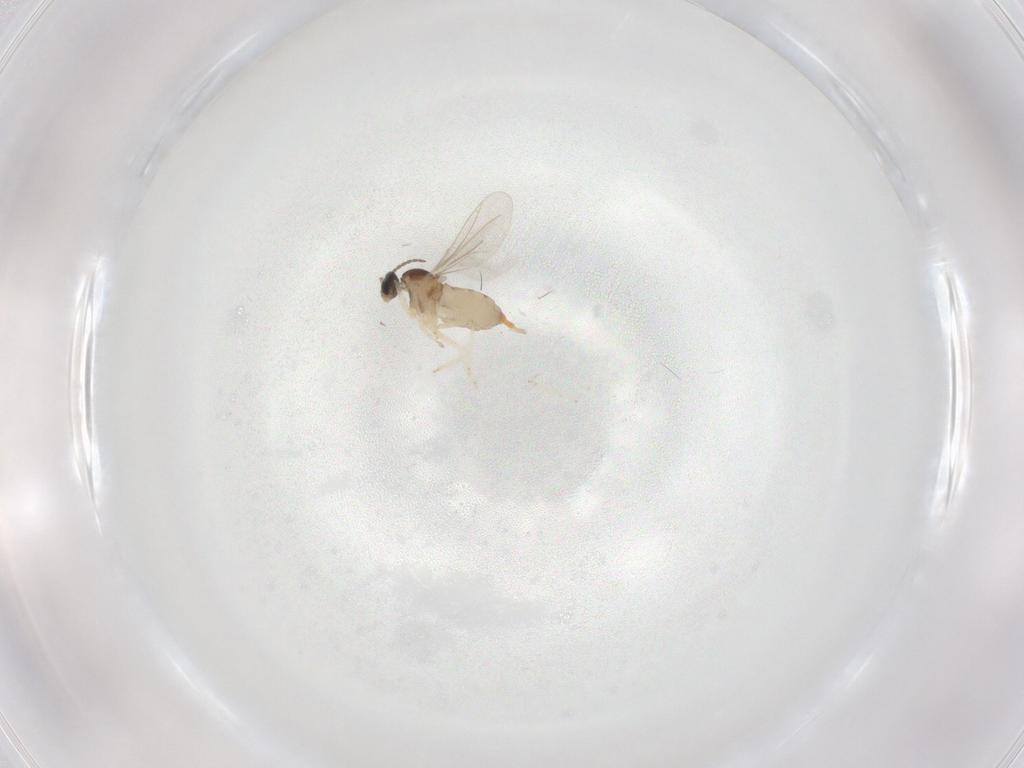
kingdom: Animalia
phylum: Arthropoda
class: Insecta
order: Diptera
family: Cecidomyiidae
